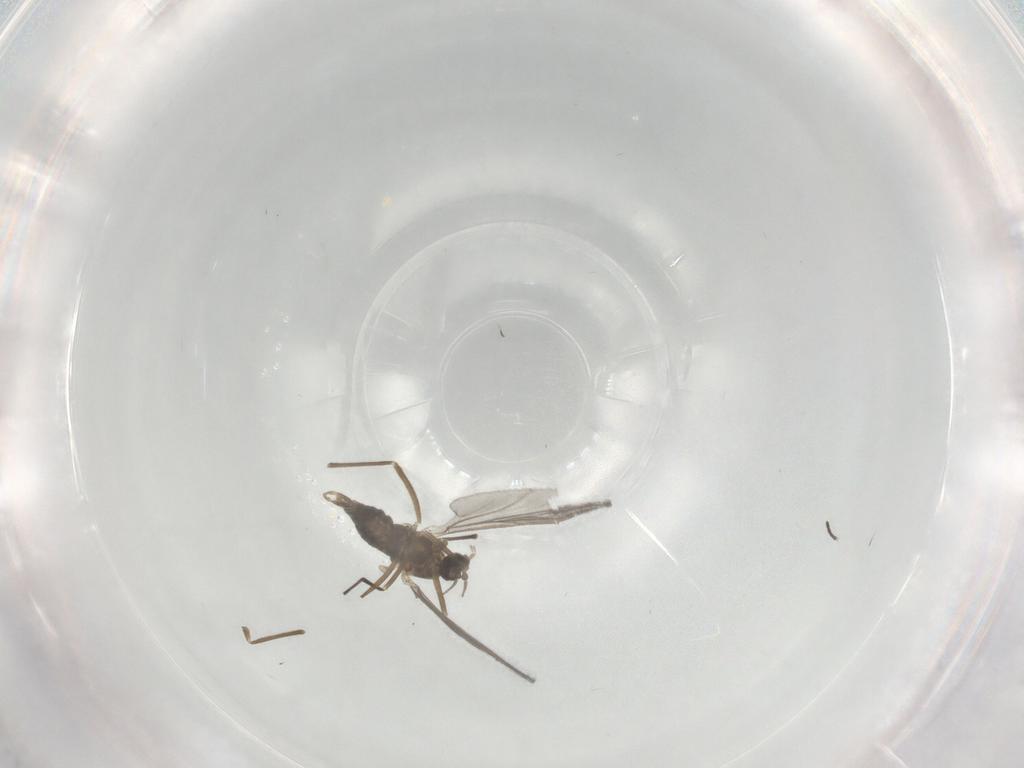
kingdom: Animalia
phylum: Arthropoda
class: Insecta
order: Diptera
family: Cecidomyiidae
